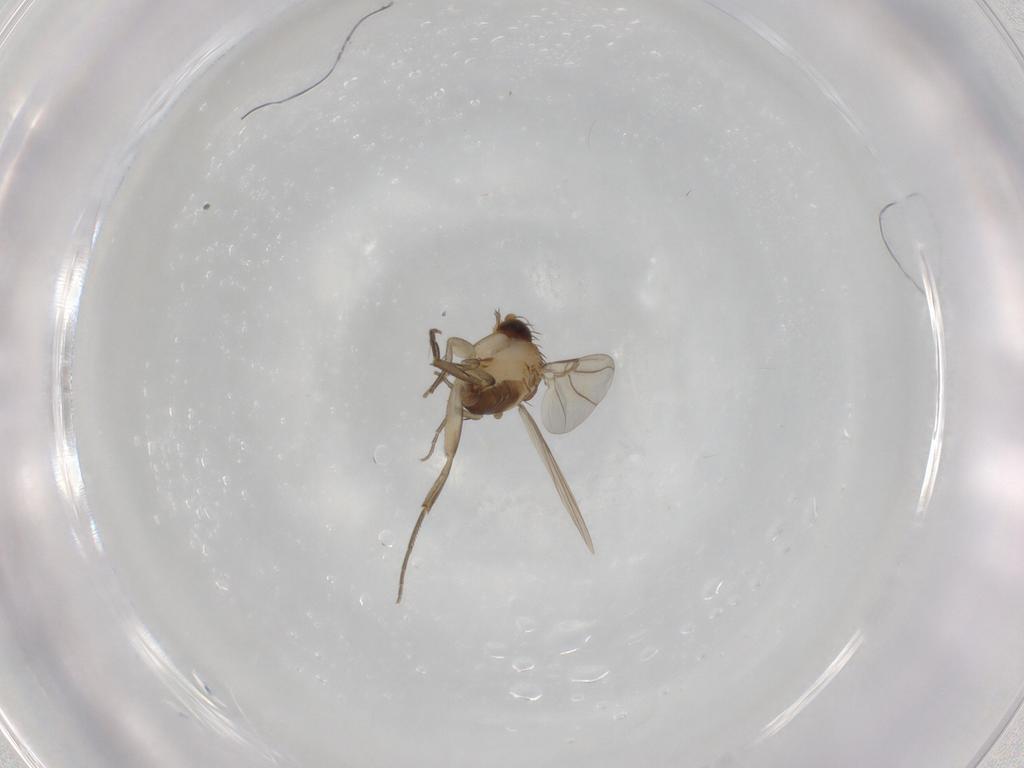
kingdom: Animalia
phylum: Arthropoda
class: Insecta
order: Diptera
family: Phoridae
